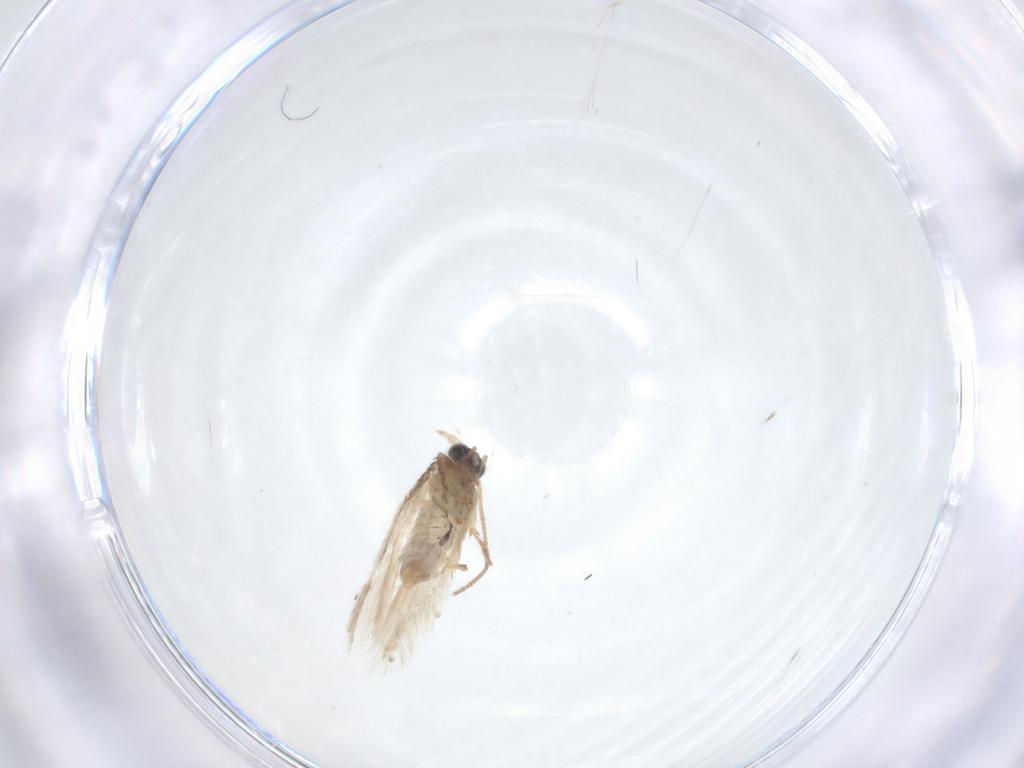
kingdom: Animalia
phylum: Arthropoda
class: Insecta
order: Lepidoptera
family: Nepticulidae
